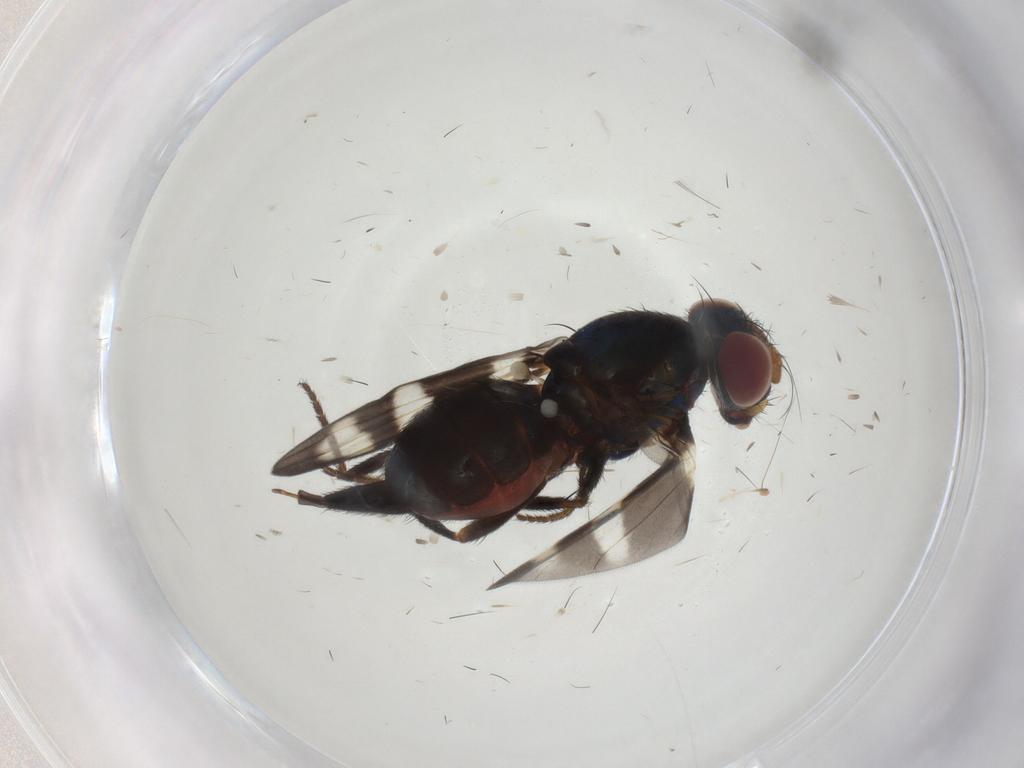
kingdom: Animalia
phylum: Arthropoda
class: Insecta
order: Diptera
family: Ulidiidae
